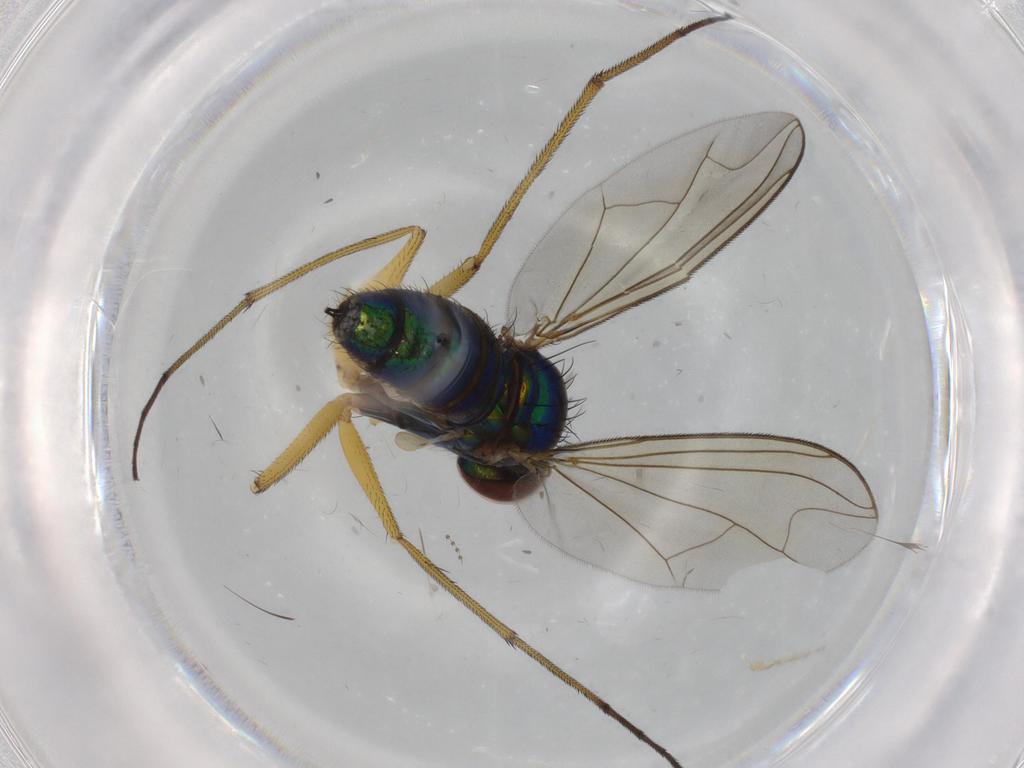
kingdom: Animalia
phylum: Arthropoda
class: Insecta
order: Diptera
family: Dolichopodidae
